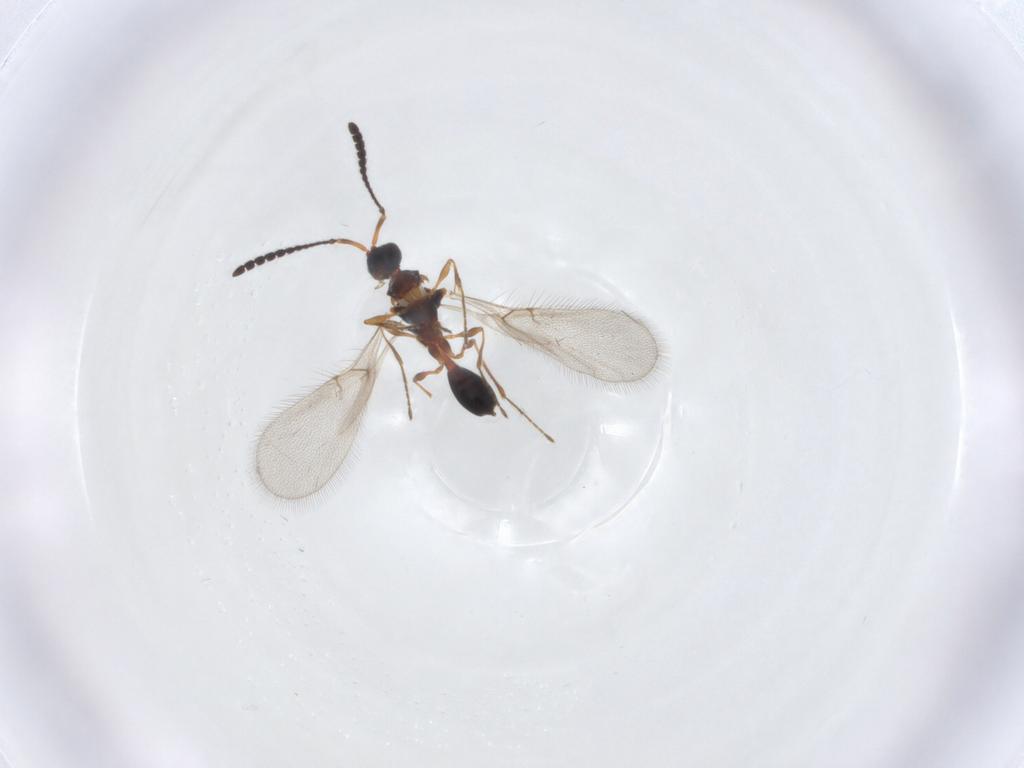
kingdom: Animalia
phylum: Arthropoda
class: Insecta
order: Hymenoptera
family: Diapriidae
